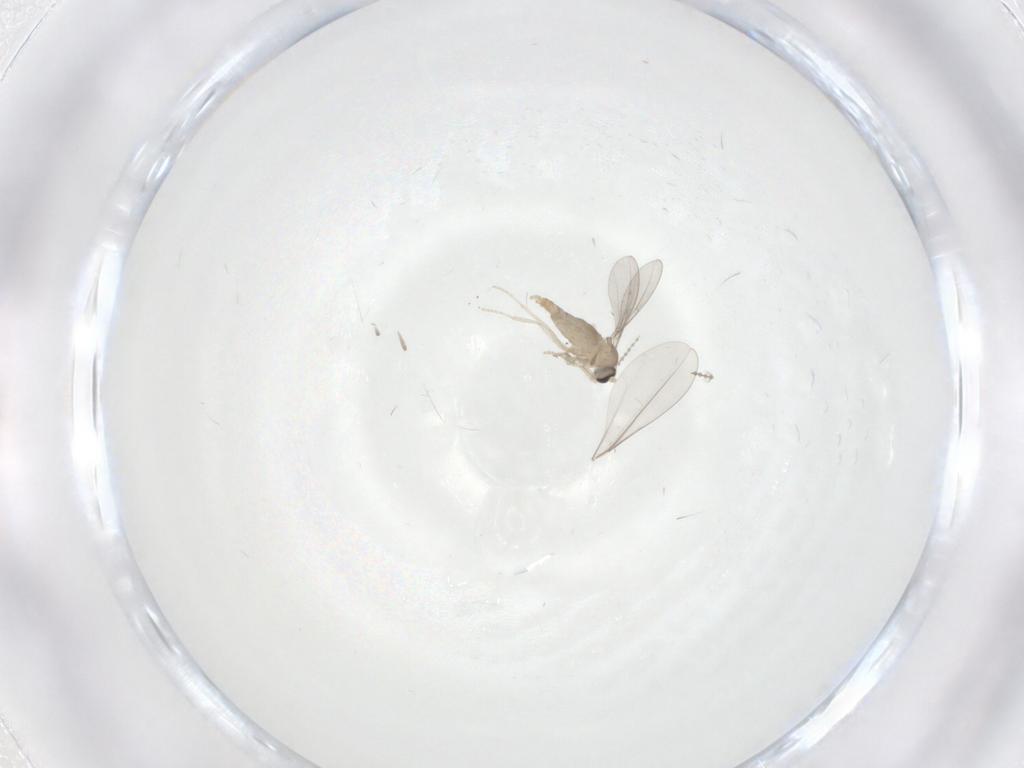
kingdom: Animalia
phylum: Arthropoda
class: Insecta
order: Diptera
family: Cecidomyiidae
